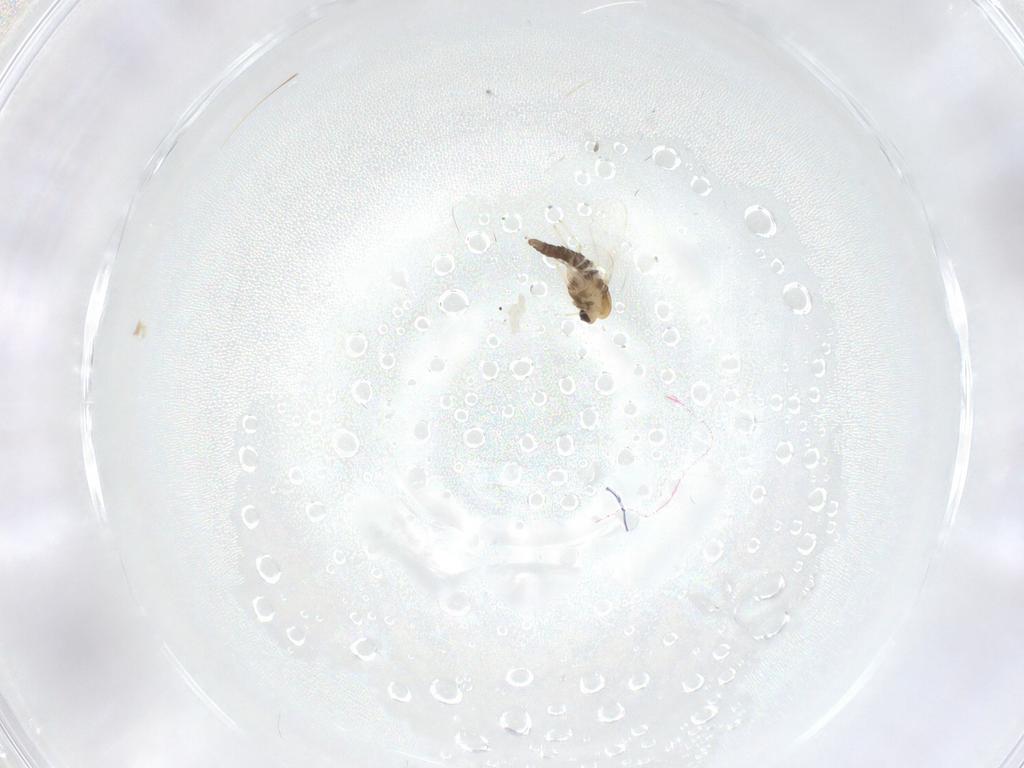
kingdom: Animalia
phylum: Arthropoda
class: Insecta
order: Diptera
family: Chironomidae
